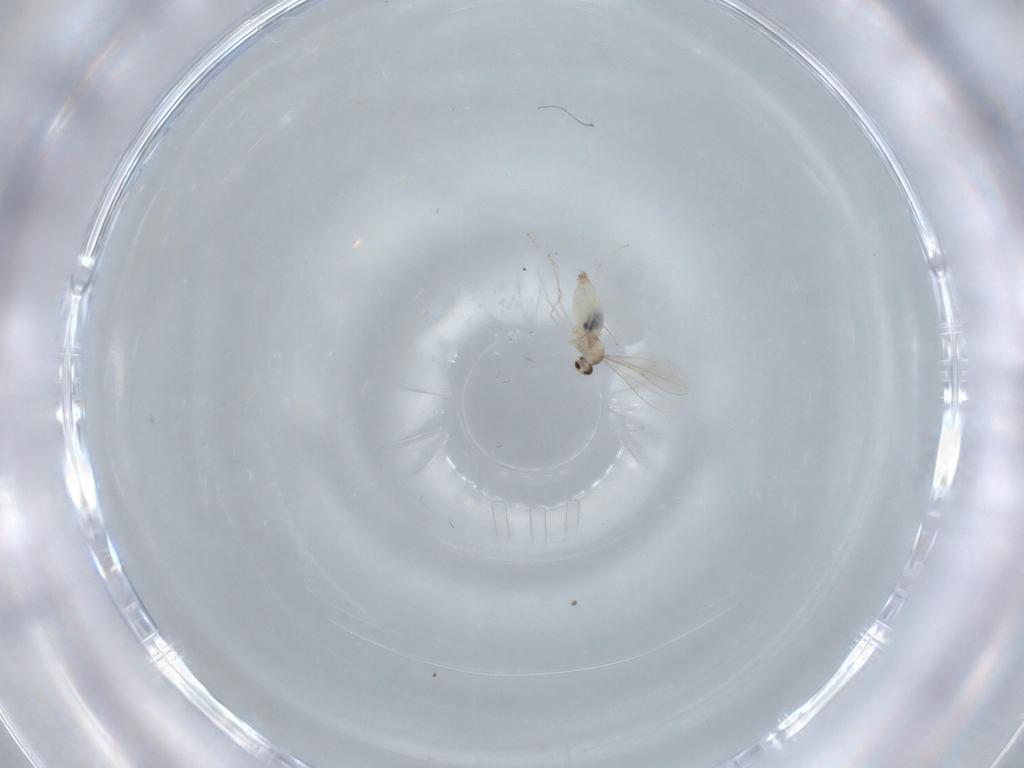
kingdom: Animalia
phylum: Arthropoda
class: Insecta
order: Diptera
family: Cecidomyiidae
